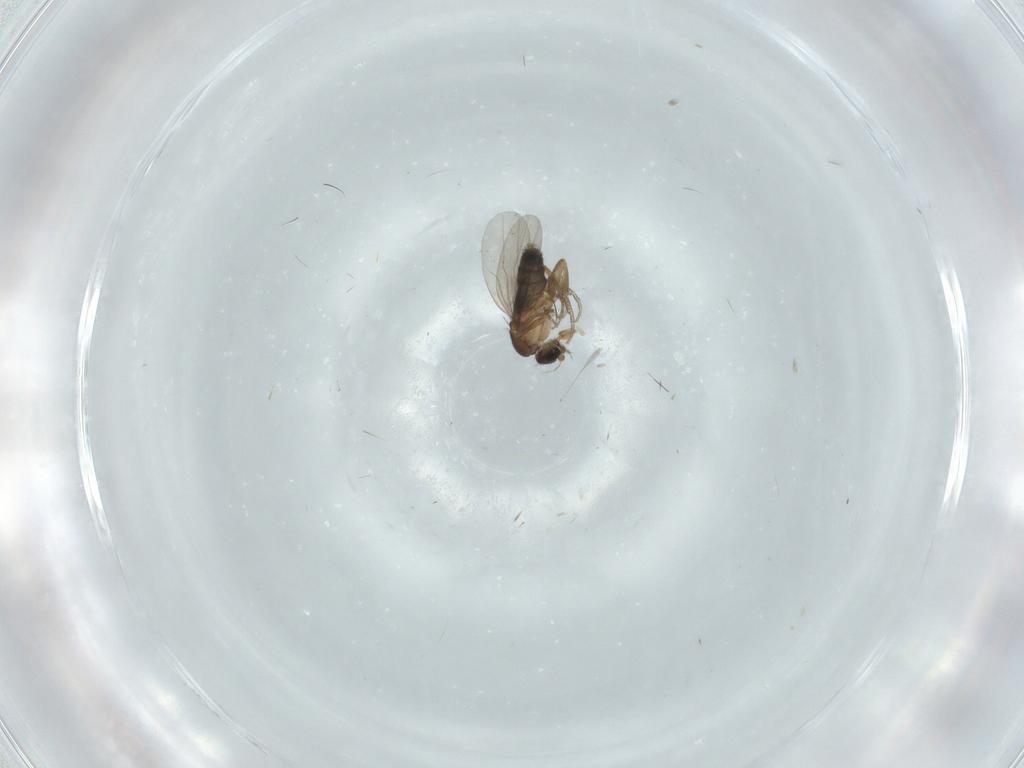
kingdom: Animalia
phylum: Arthropoda
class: Insecta
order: Diptera
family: Cecidomyiidae
